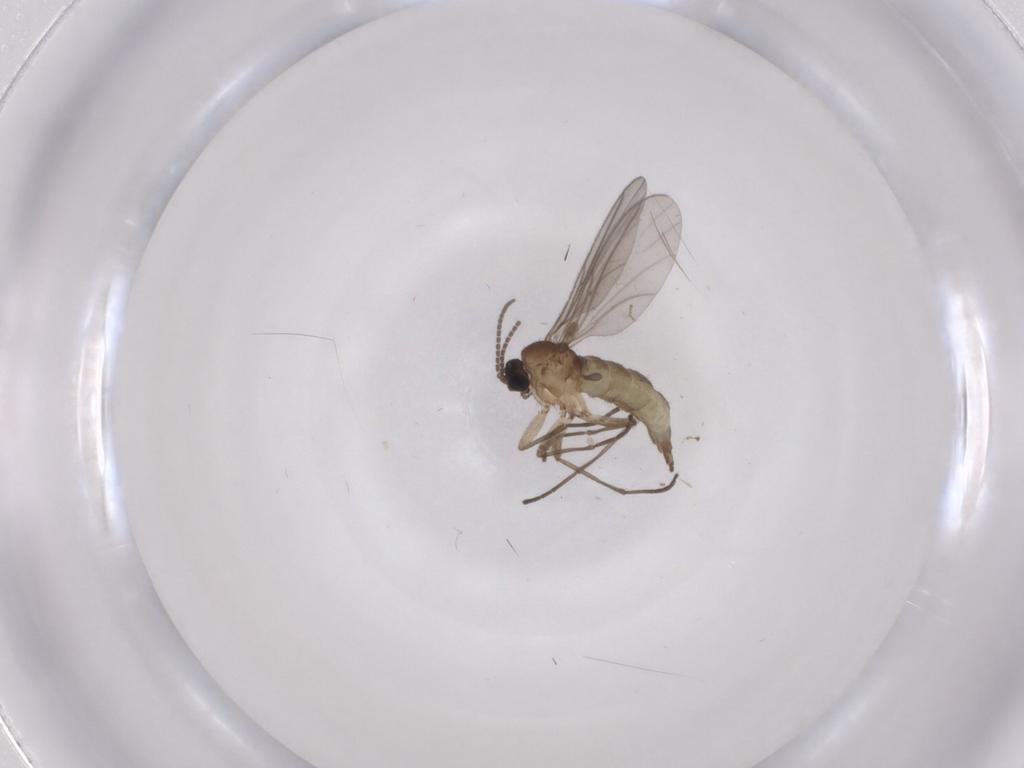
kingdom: Animalia
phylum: Arthropoda
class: Insecta
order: Diptera
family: Sciaridae
